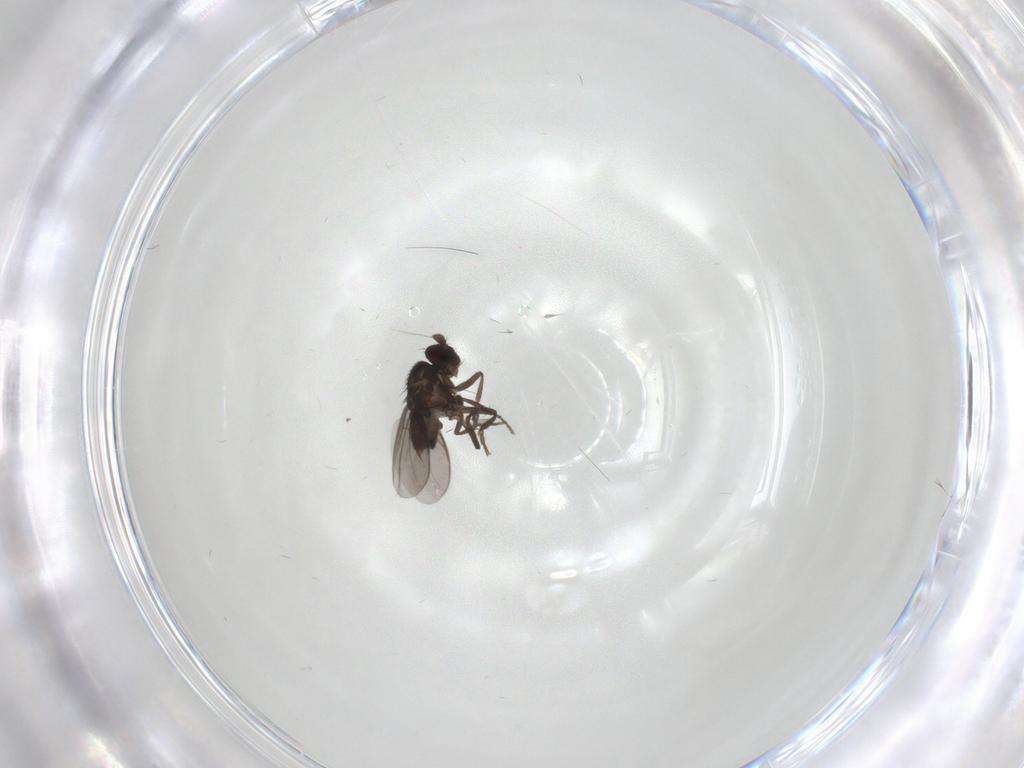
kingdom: Animalia
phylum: Arthropoda
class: Insecta
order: Diptera
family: Sphaeroceridae
